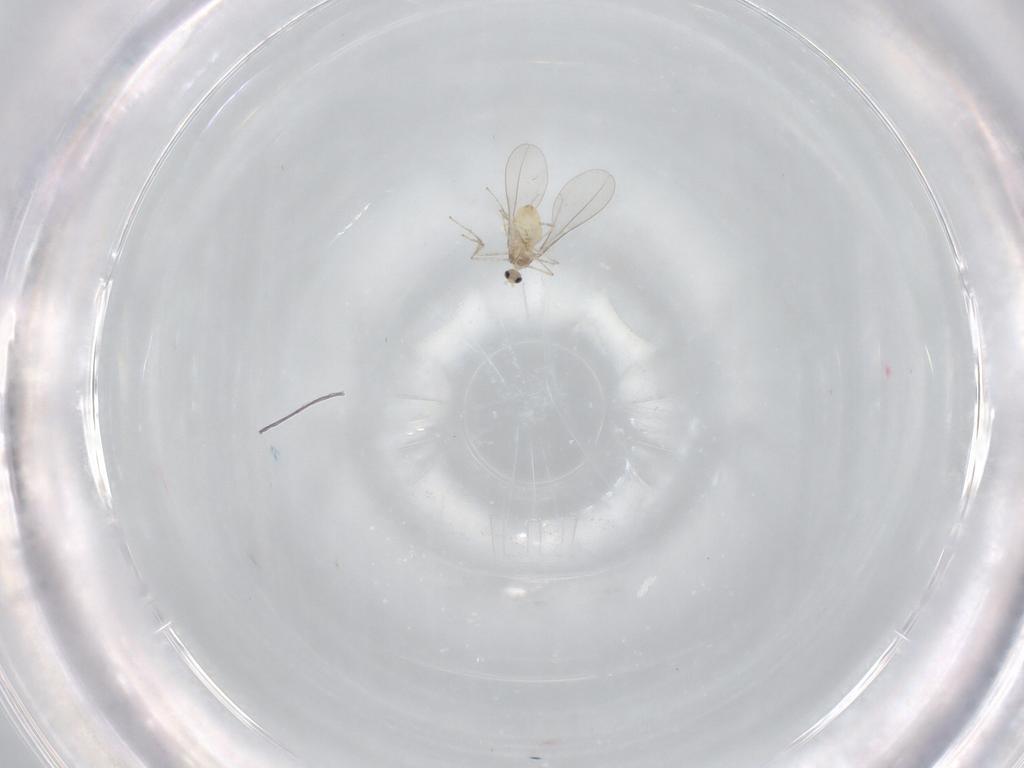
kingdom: Animalia
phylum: Arthropoda
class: Insecta
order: Diptera
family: Cecidomyiidae
